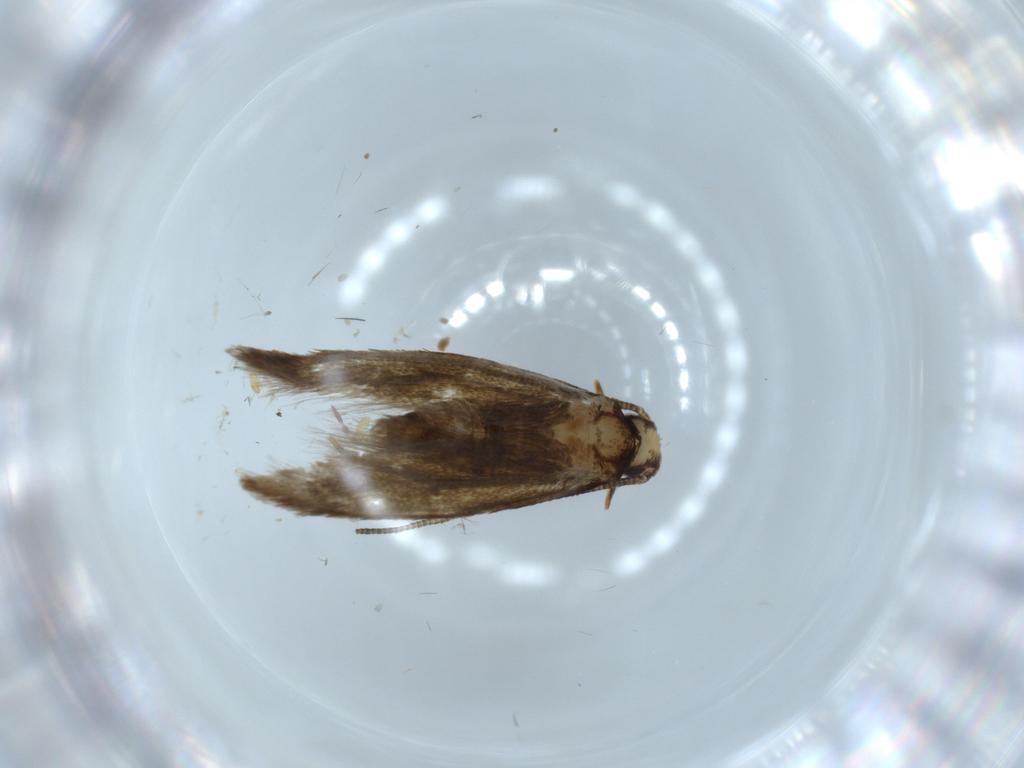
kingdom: Animalia
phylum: Arthropoda
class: Insecta
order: Lepidoptera
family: Tineidae
